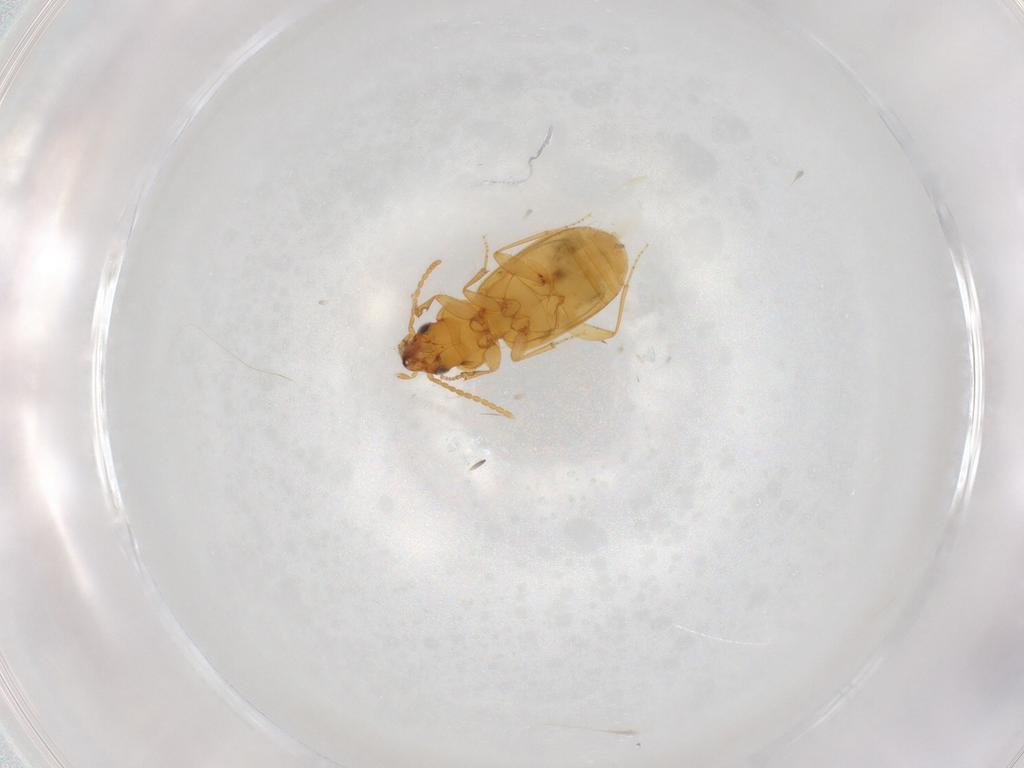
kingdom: Animalia
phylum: Arthropoda
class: Insecta
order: Coleoptera
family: Carabidae
